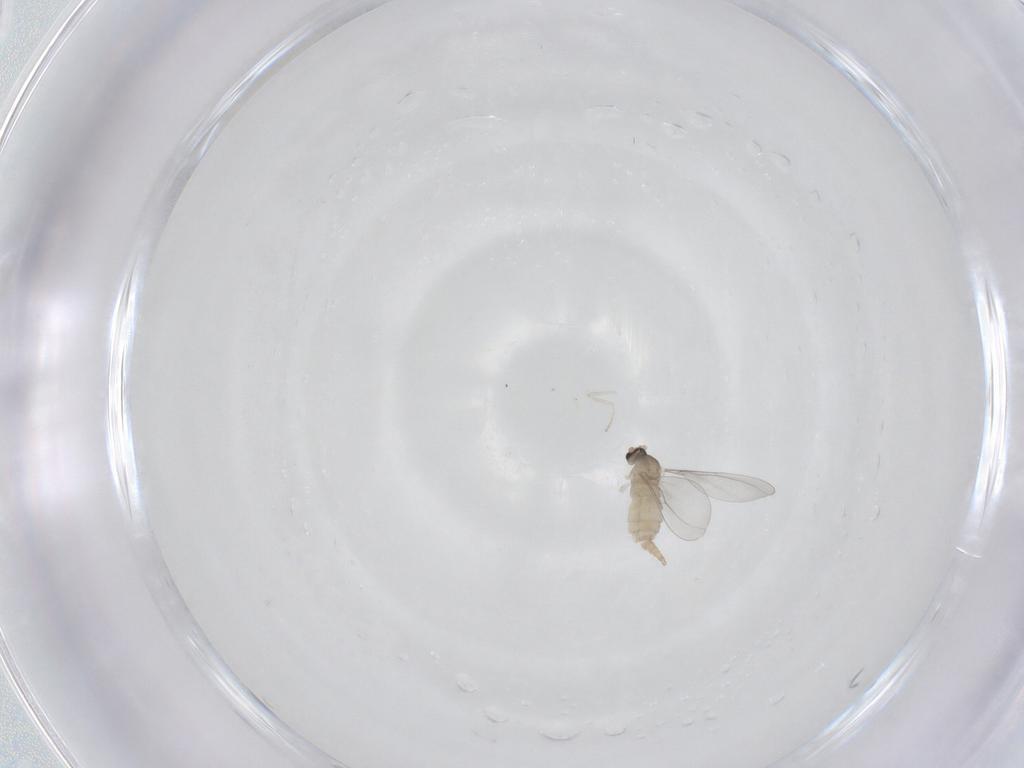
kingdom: Animalia
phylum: Arthropoda
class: Insecta
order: Diptera
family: Cecidomyiidae
